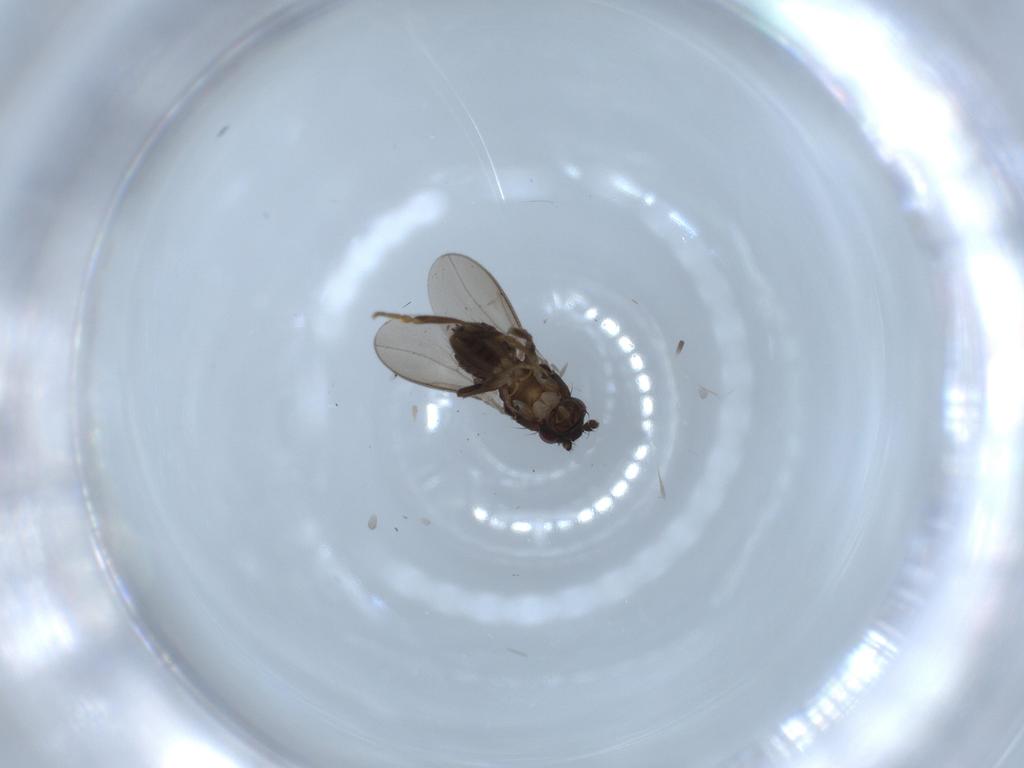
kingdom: Animalia
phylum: Arthropoda
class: Insecta
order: Diptera
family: Sphaeroceridae
